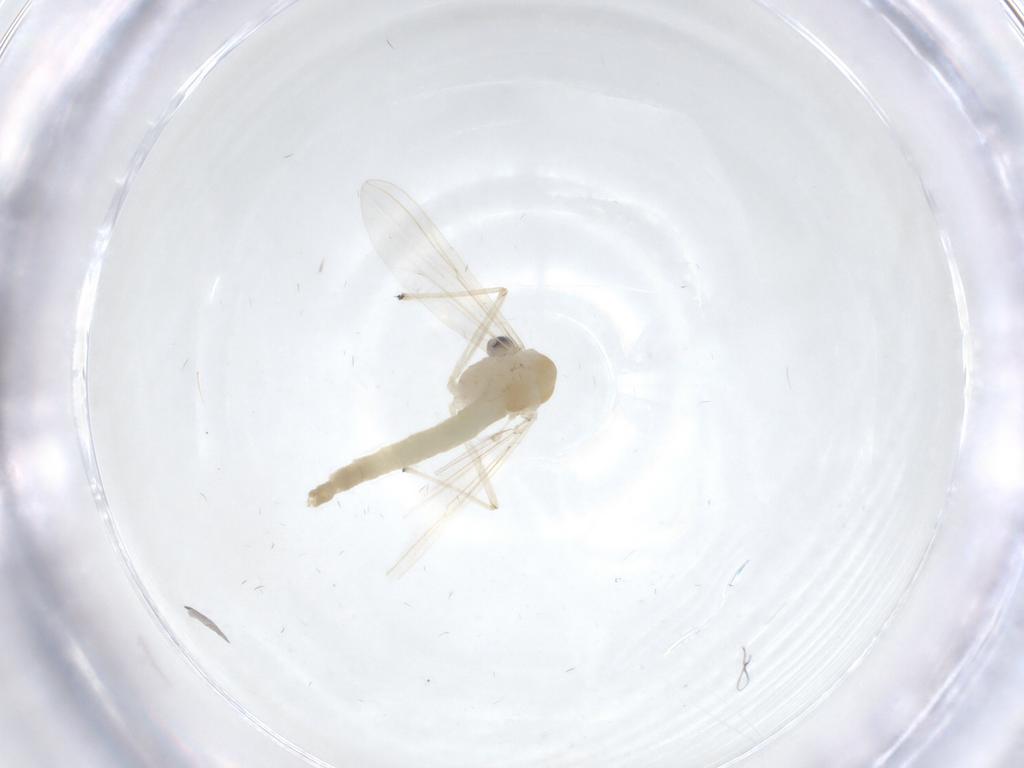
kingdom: Animalia
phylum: Arthropoda
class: Insecta
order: Diptera
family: Chironomidae
